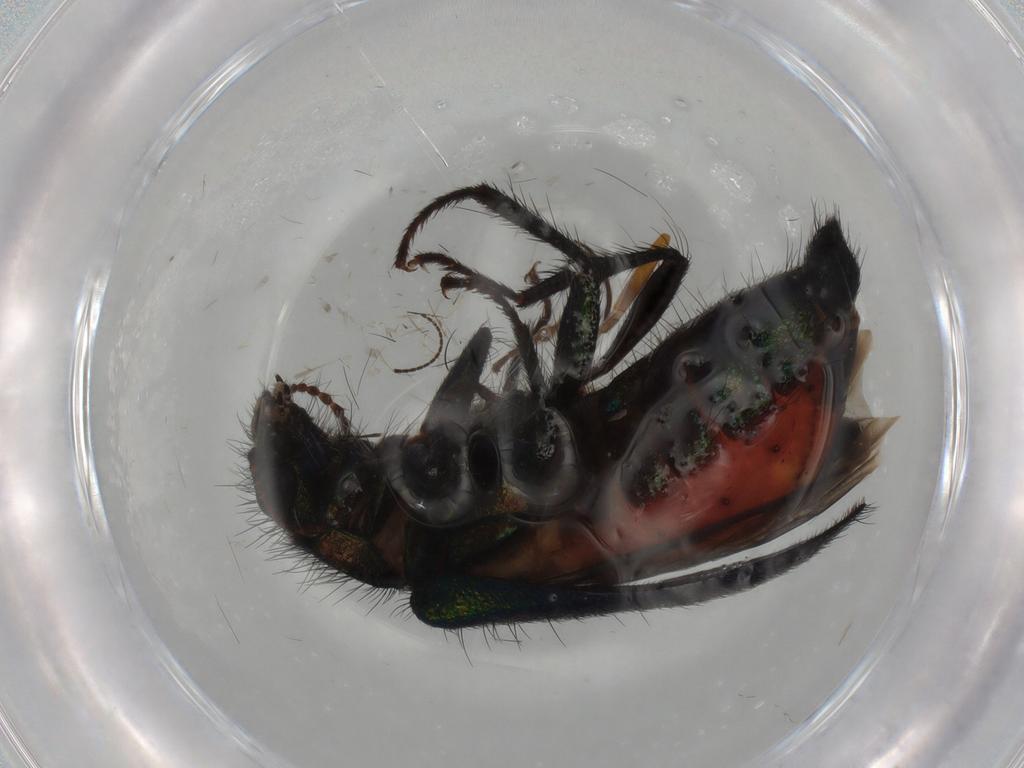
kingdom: Animalia
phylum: Arthropoda
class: Insecta
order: Coleoptera
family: Melyridae
